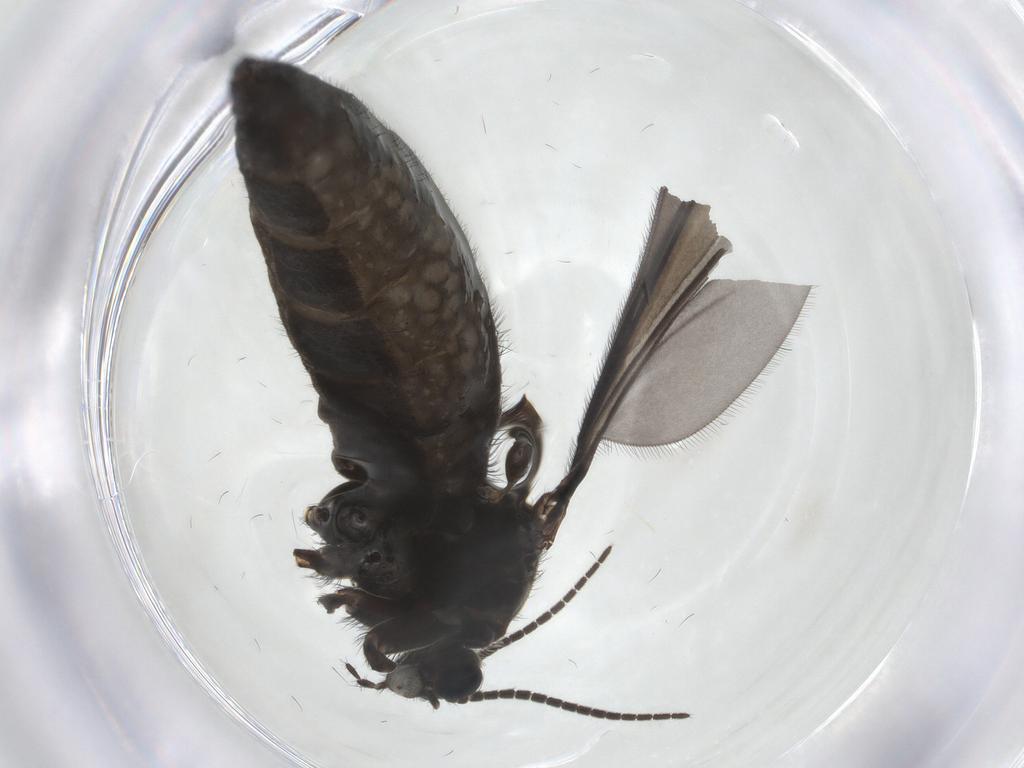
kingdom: Animalia
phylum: Arthropoda
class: Insecta
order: Diptera
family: Sciaridae
